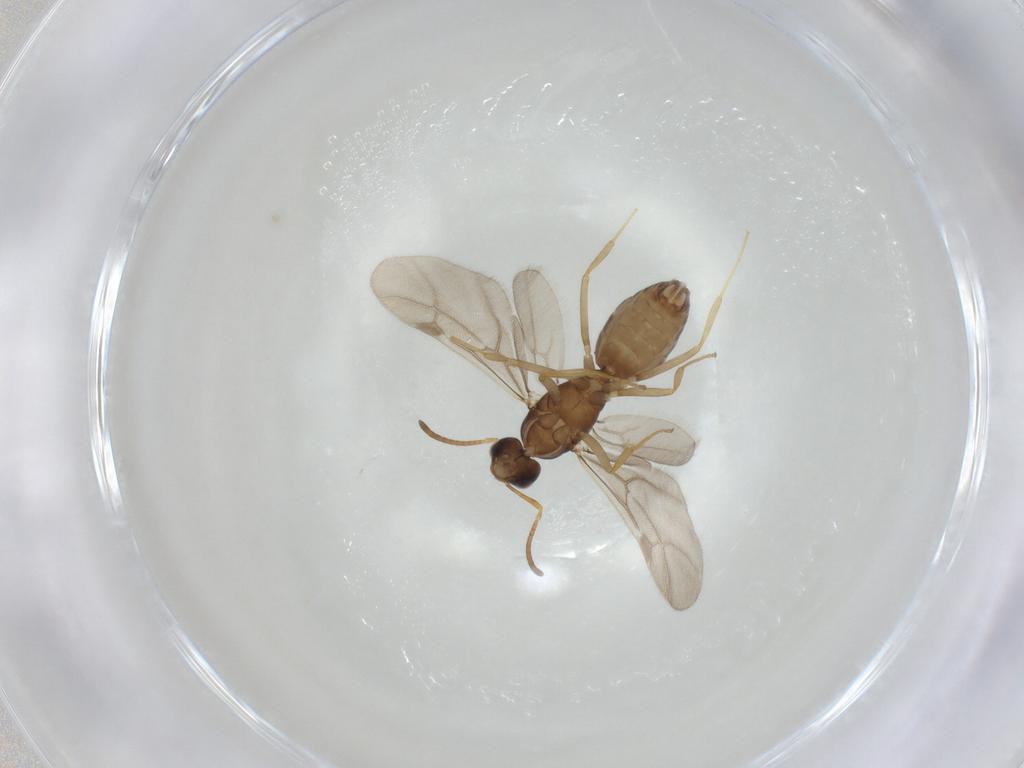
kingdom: Animalia
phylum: Arthropoda
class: Insecta
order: Hymenoptera
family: Formicidae
